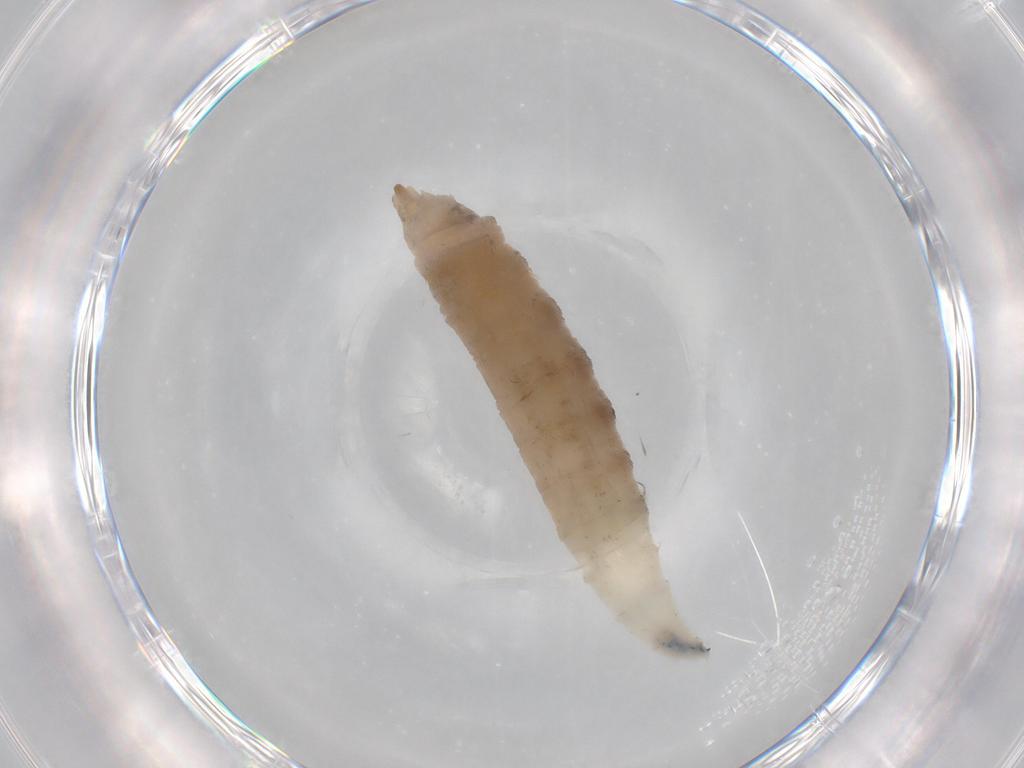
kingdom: Animalia
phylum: Arthropoda
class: Insecta
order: Diptera
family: Drosophilidae
